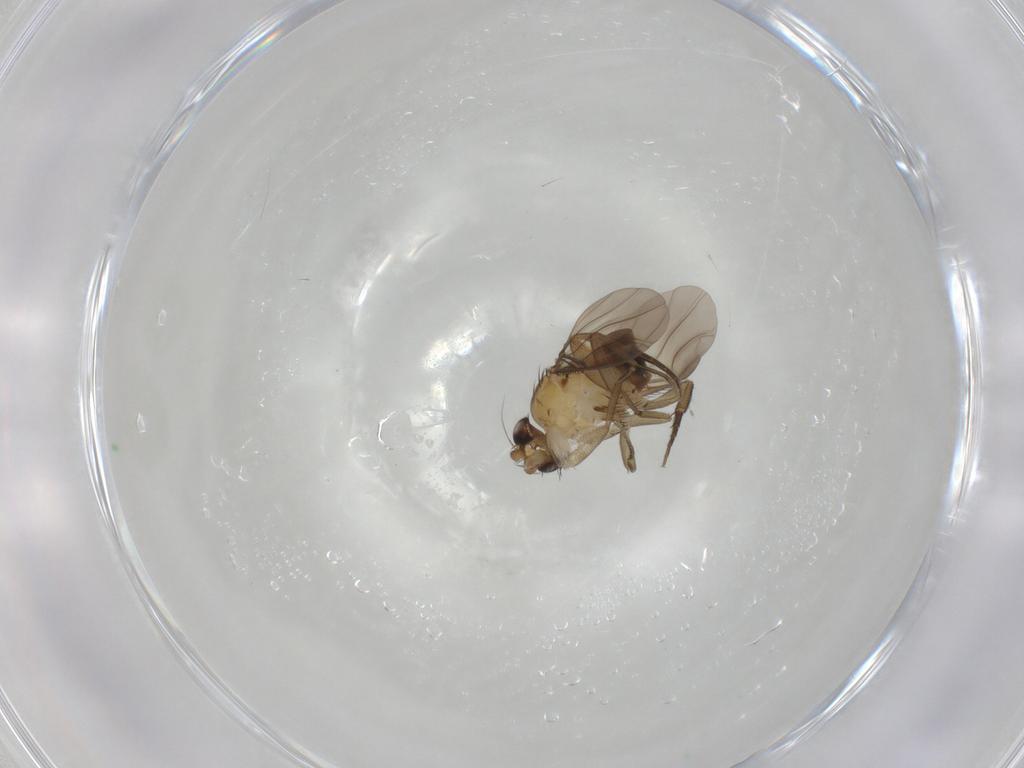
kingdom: Animalia
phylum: Arthropoda
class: Insecta
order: Diptera
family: Phoridae
